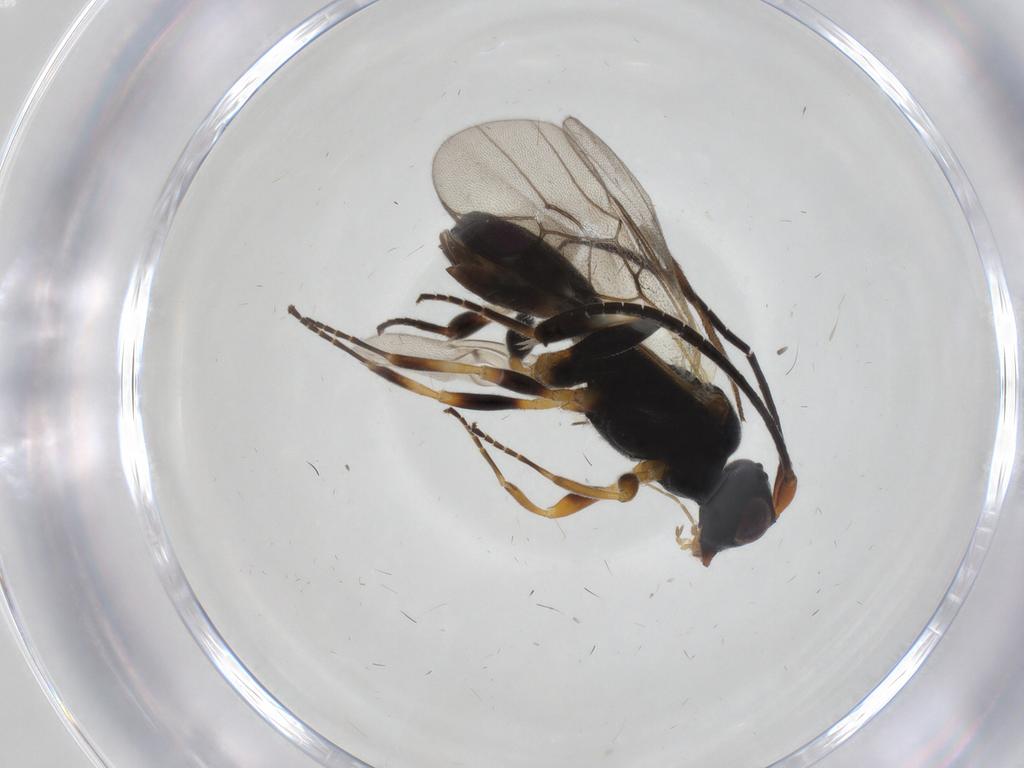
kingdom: Animalia
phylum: Arthropoda
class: Insecta
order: Hymenoptera
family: Braconidae
